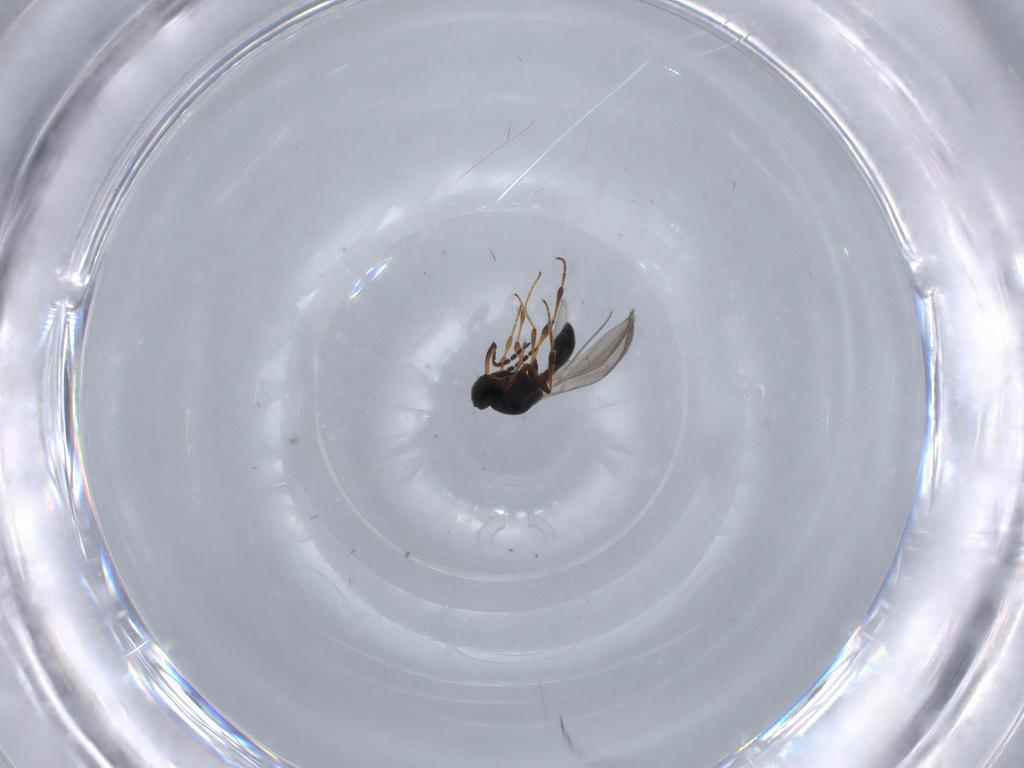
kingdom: Animalia
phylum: Arthropoda
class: Insecta
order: Hymenoptera
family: Platygastridae
